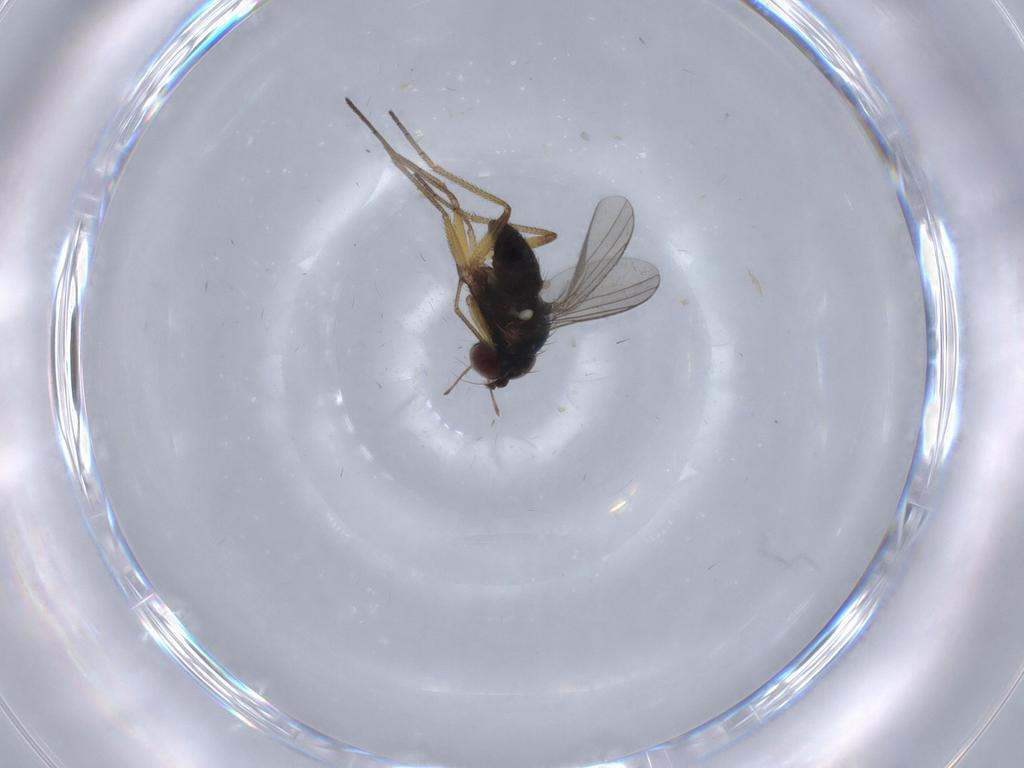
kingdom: Animalia
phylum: Arthropoda
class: Insecta
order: Diptera
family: Dolichopodidae
